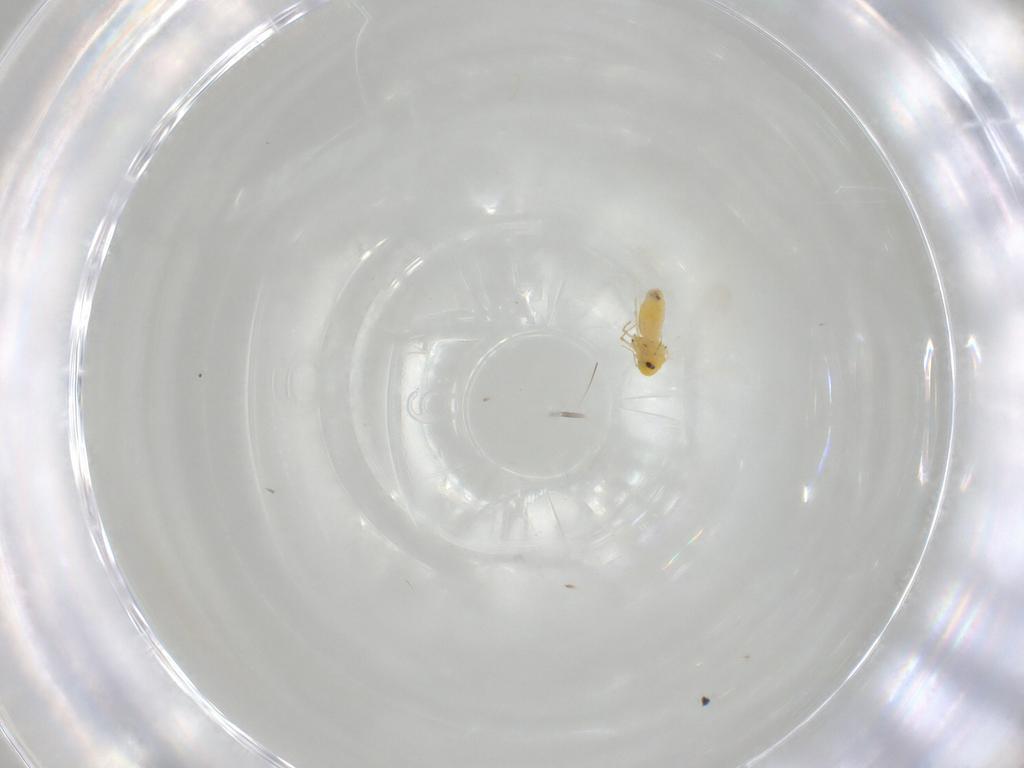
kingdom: Animalia
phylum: Arthropoda
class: Insecta
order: Hemiptera
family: Aleyrodidae
